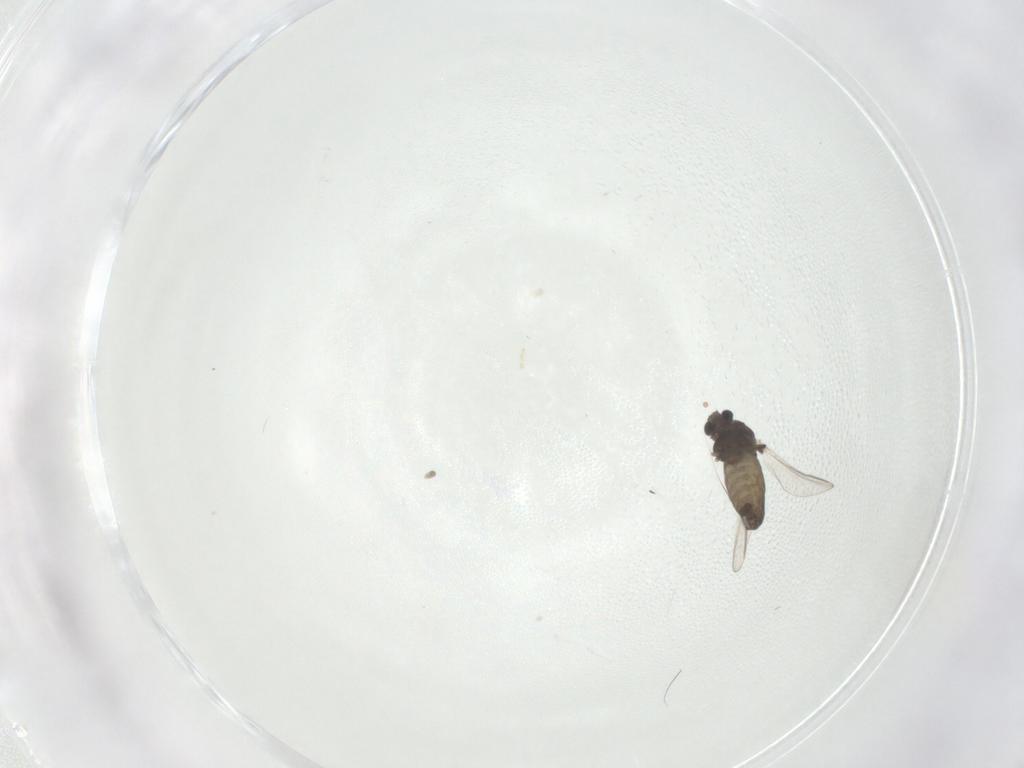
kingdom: Animalia
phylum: Arthropoda
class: Insecta
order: Diptera
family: Chironomidae
